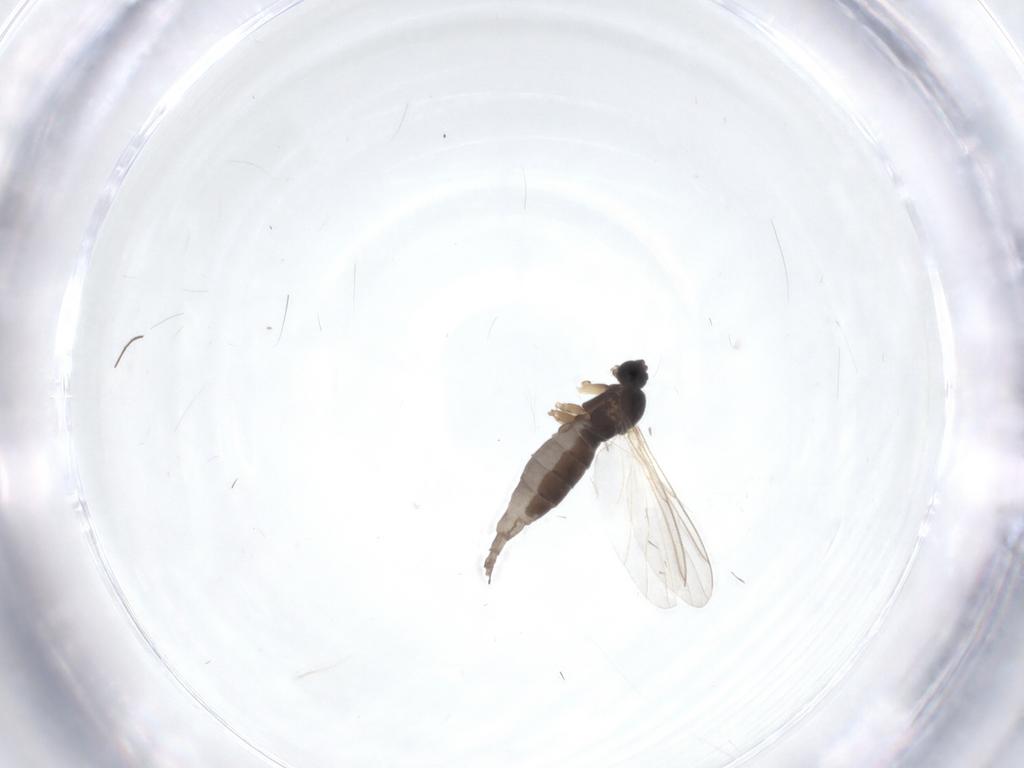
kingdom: Animalia
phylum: Arthropoda
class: Insecta
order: Diptera
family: Sciaridae
